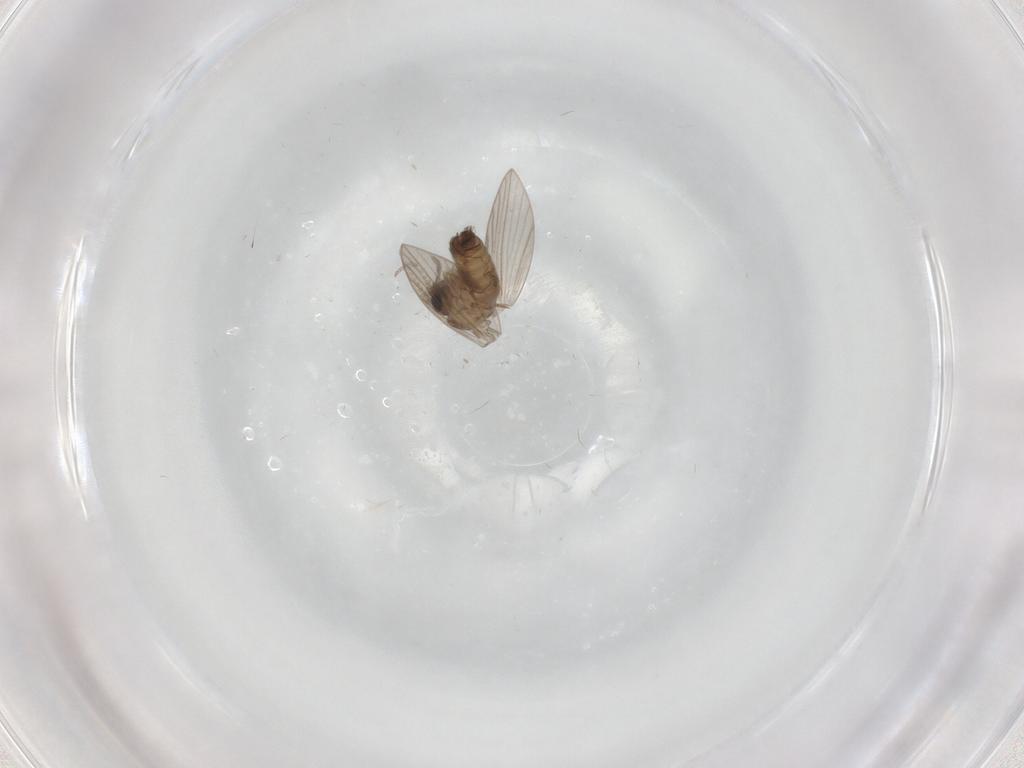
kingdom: Animalia
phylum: Arthropoda
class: Insecta
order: Diptera
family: Psychodidae
